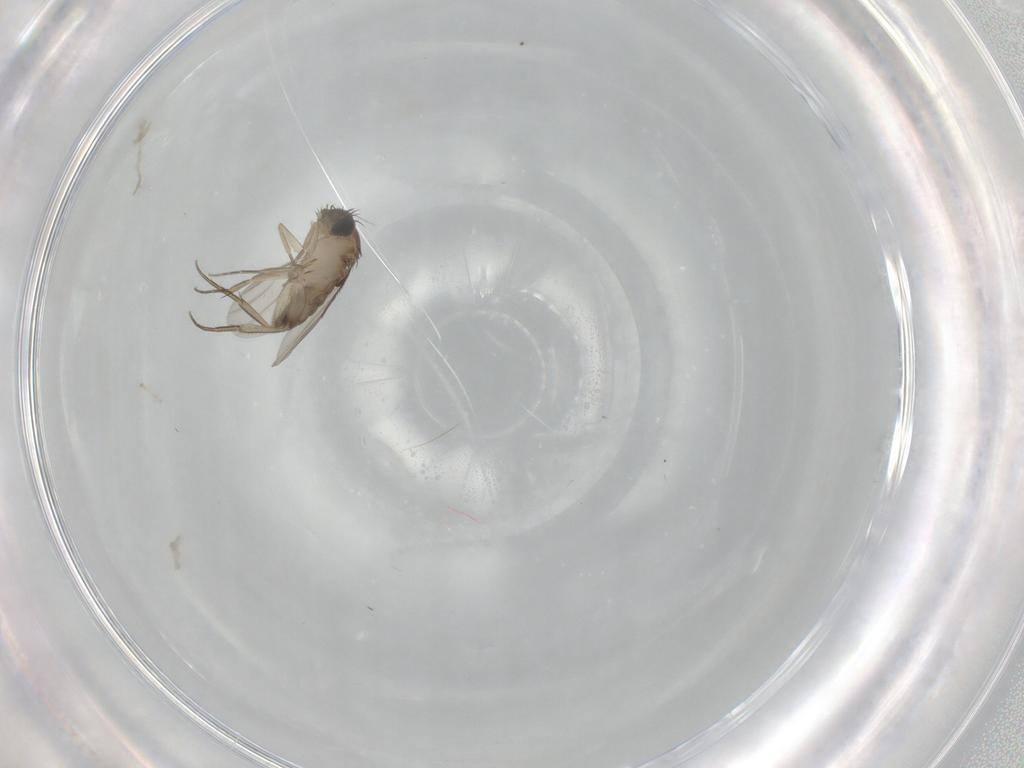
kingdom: Animalia
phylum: Arthropoda
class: Insecta
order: Diptera
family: Phoridae
